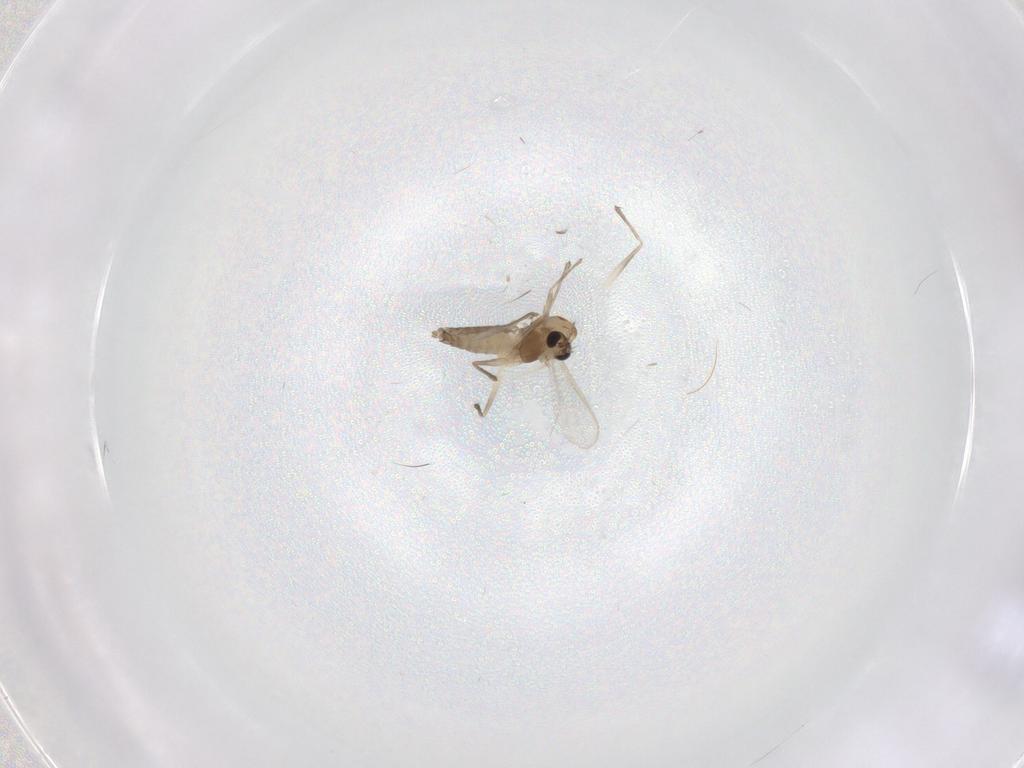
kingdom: Animalia
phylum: Arthropoda
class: Insecta
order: Diptera
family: Chironomidae
